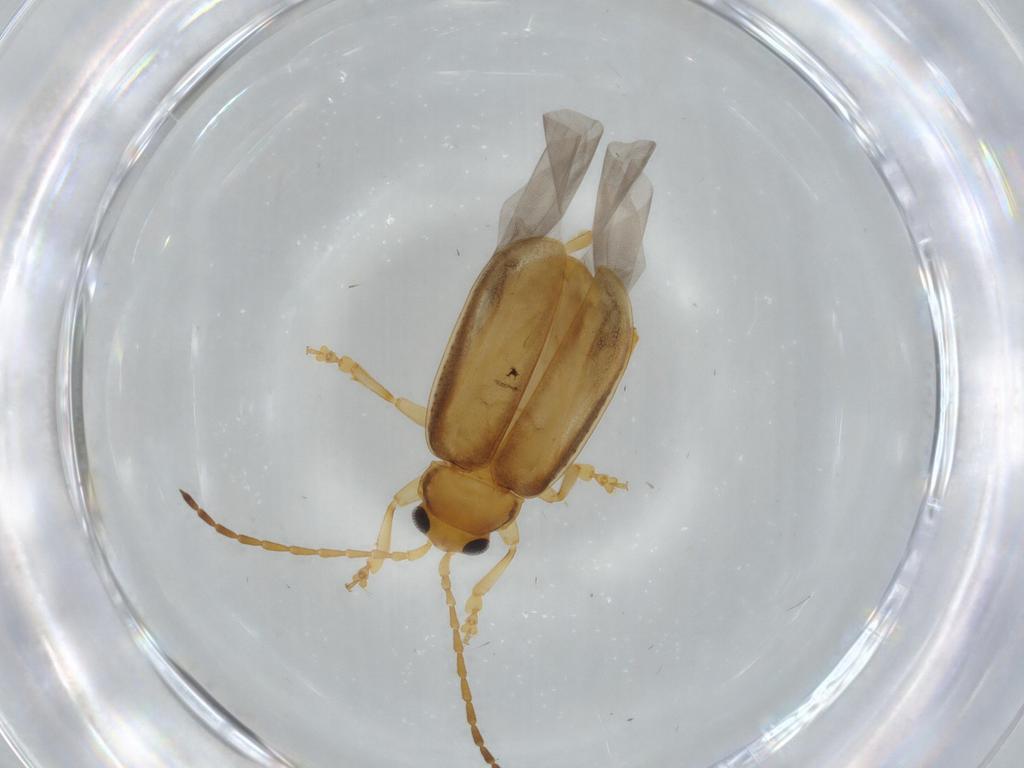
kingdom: Animalia
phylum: Arthropoda
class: Insecta
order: Coleoptera
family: Chrysomelidae
